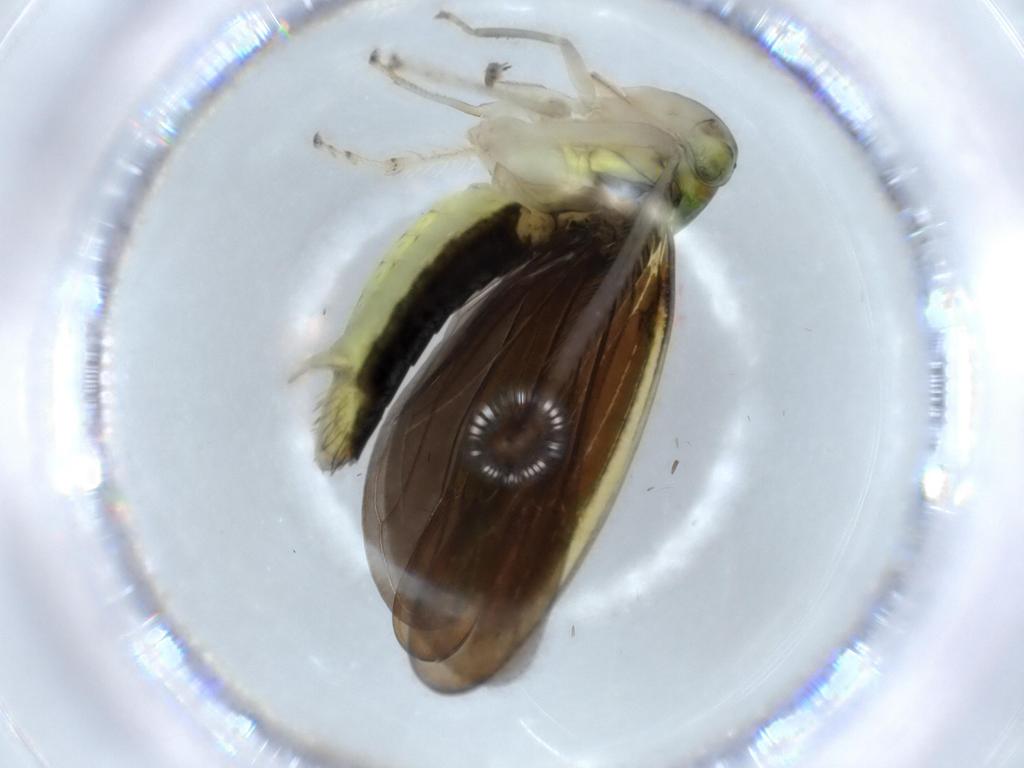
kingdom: Animalia
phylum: Arthropoda
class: Insecta
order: Hemiptera
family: Cicadellidae
